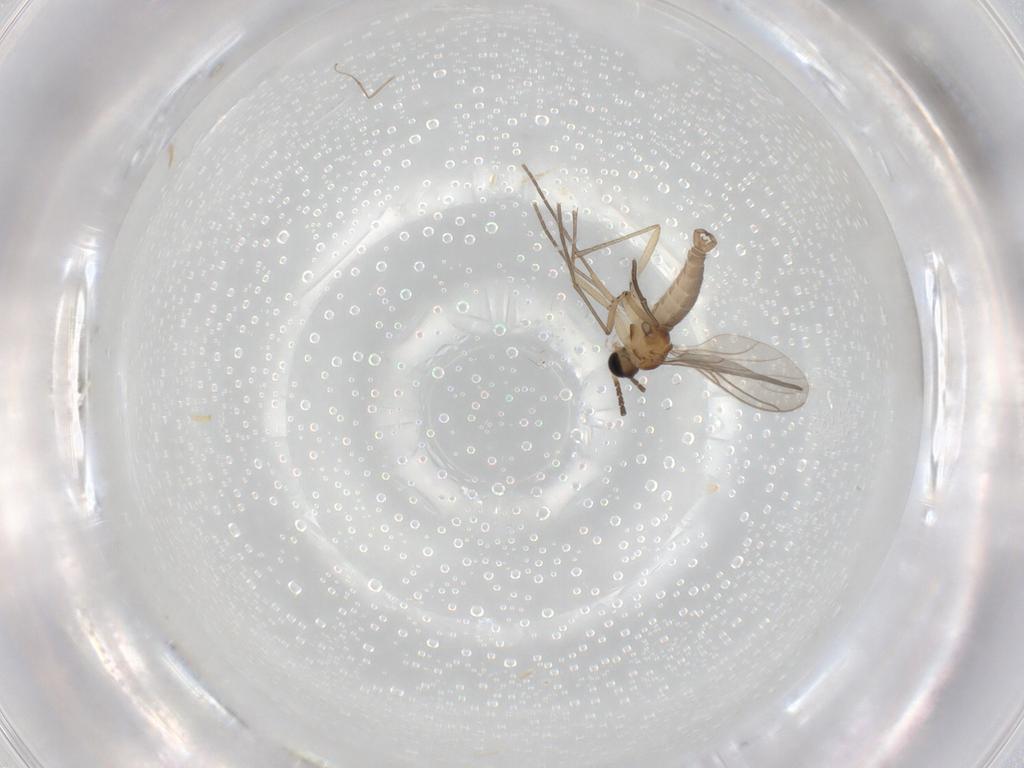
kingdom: Animalia
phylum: Arthropoda
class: Insecta
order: Diptera
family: Sciaridae
